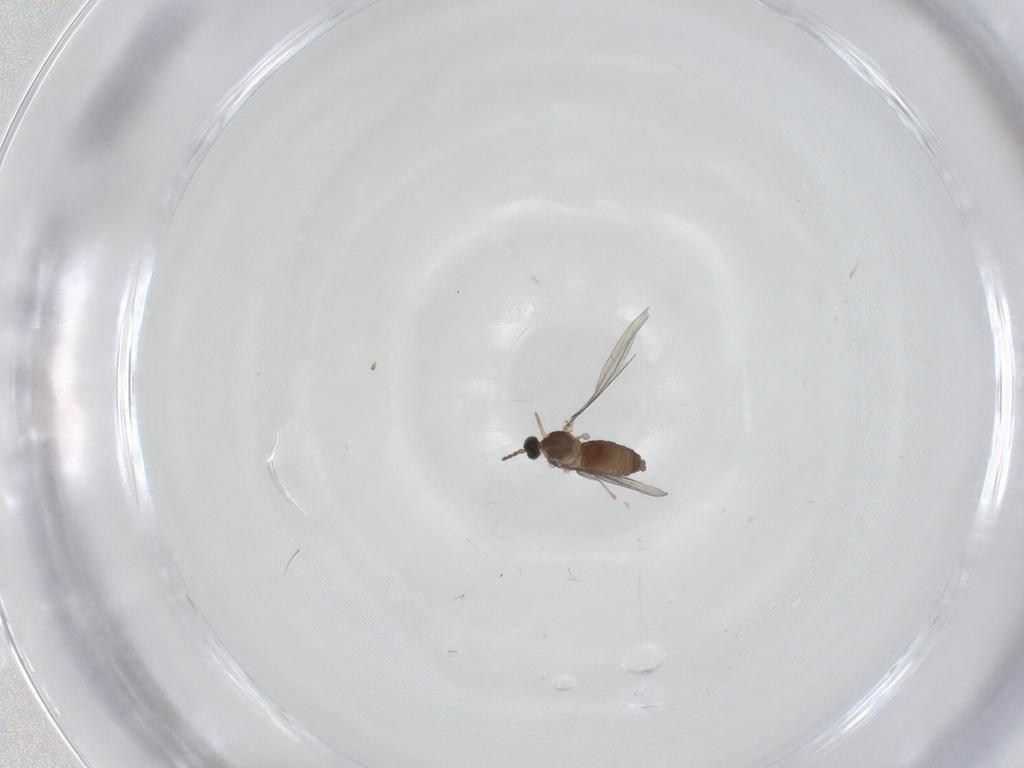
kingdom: Animalia
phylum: Arthropoda
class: Insecta
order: Diptera
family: Cecidomyiidae
